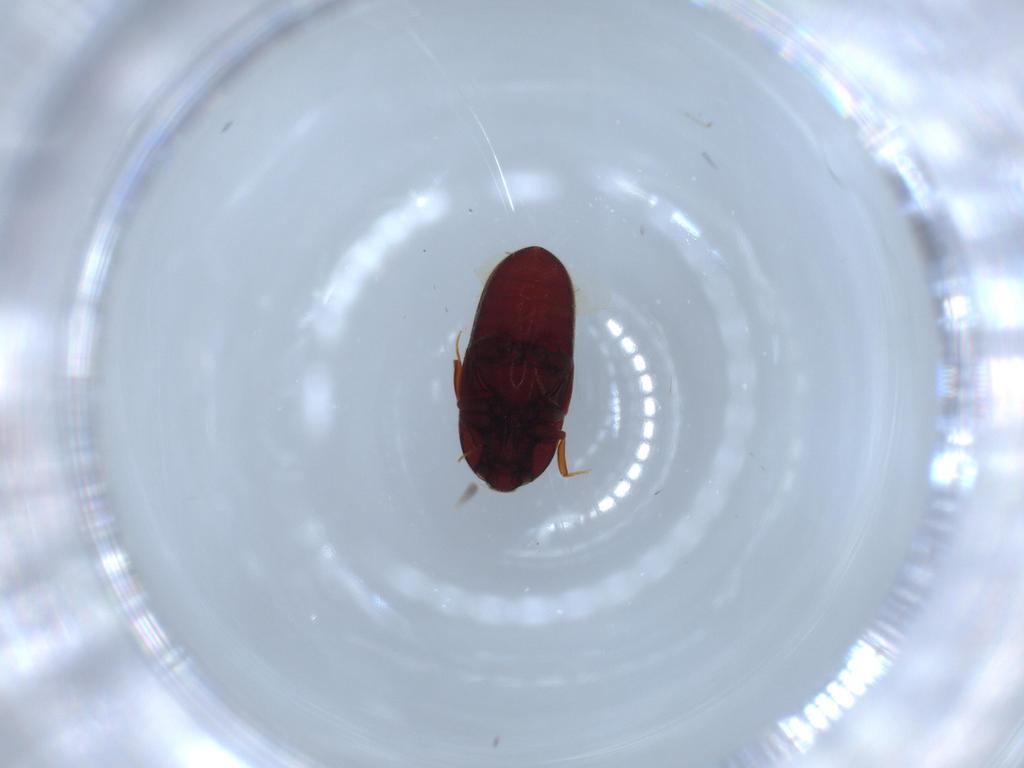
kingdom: Animalia
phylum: Arthropoda
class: Insecta
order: Coleoptera
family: Throscidae
